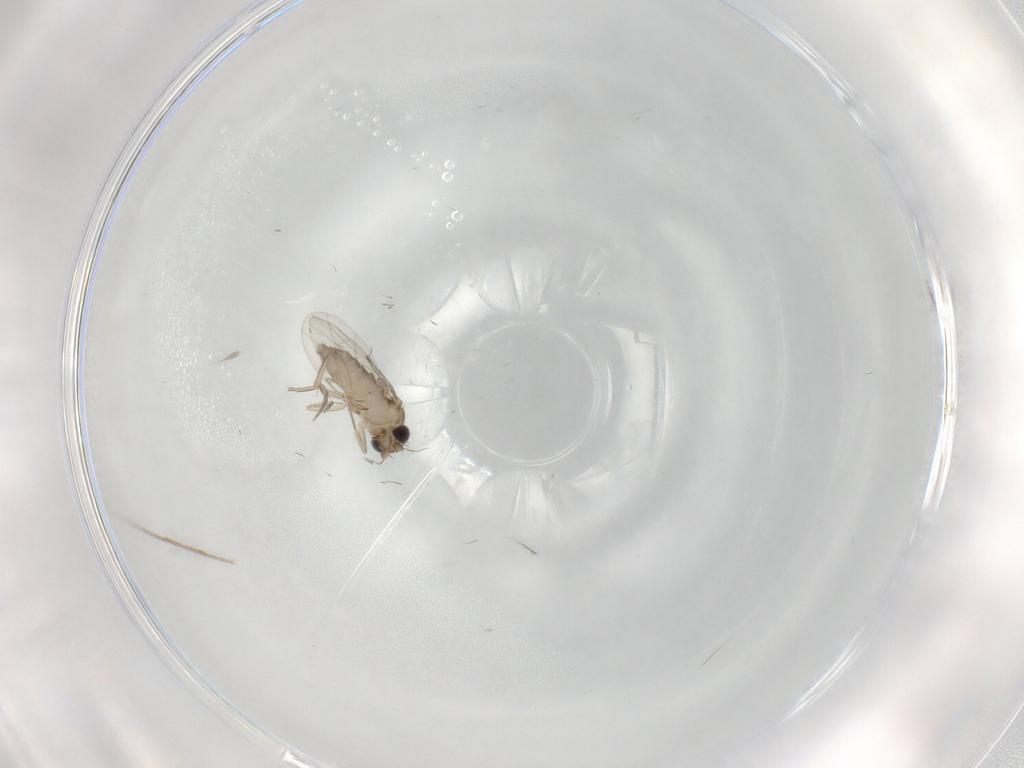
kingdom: Animalia
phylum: Arthropoda
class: Insecta
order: Diptera
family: Phoridae
